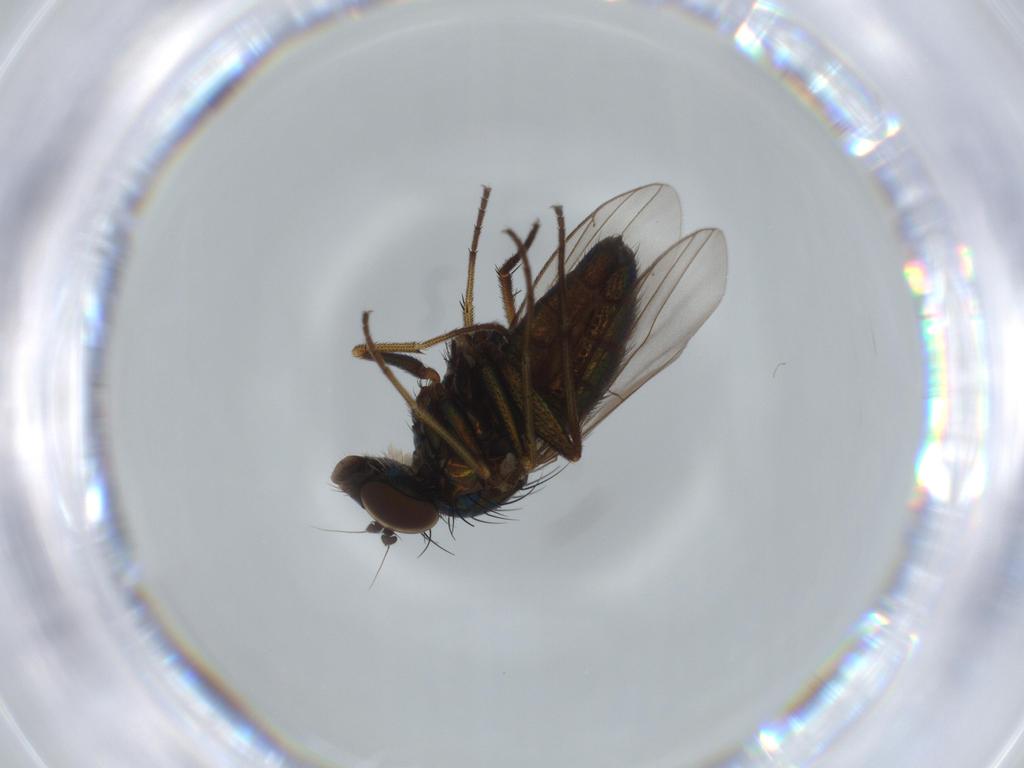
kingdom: Animalia
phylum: Arthropoda
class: Insecta
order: Diptera
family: Dolichopodidae
